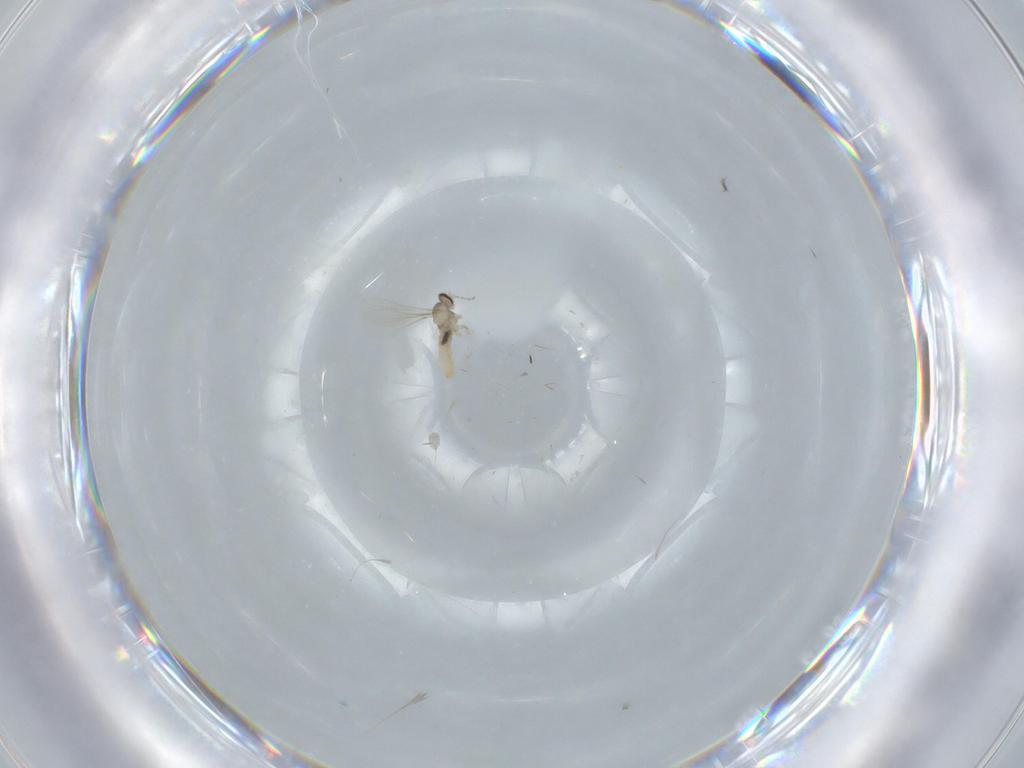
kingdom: Animalia
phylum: Arthropoda
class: Insecta
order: Diptera
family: Cecidomyiidae
